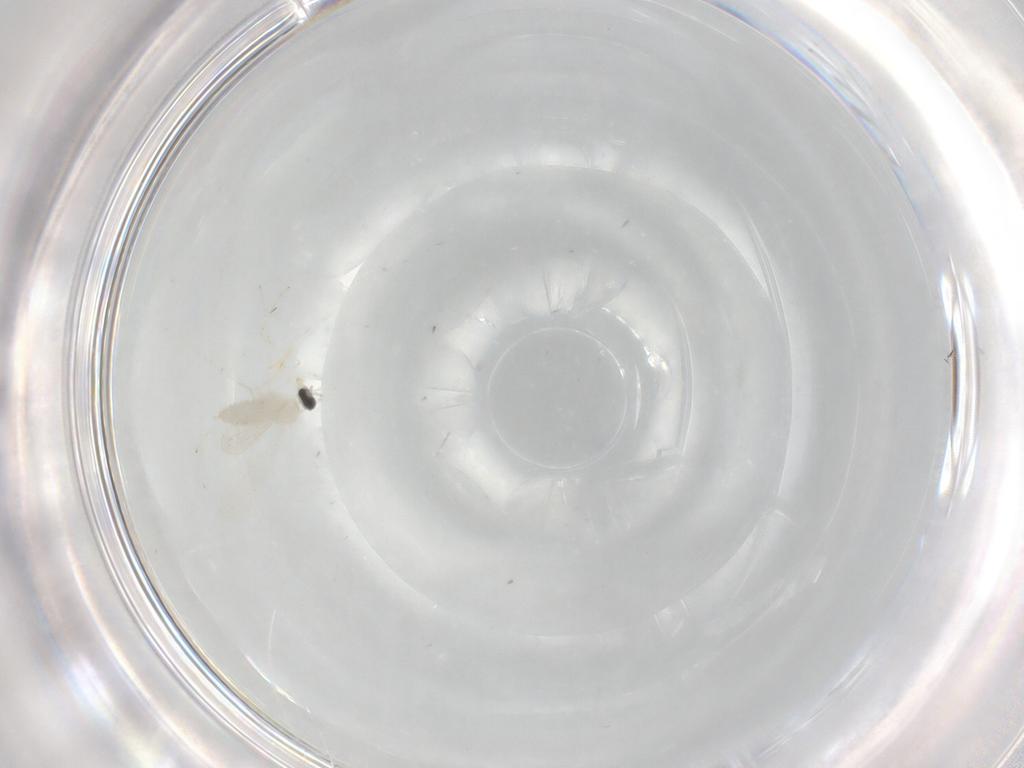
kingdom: Animalia
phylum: Arthropoda
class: Insecta
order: Diptera
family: Cecidomyiidae
